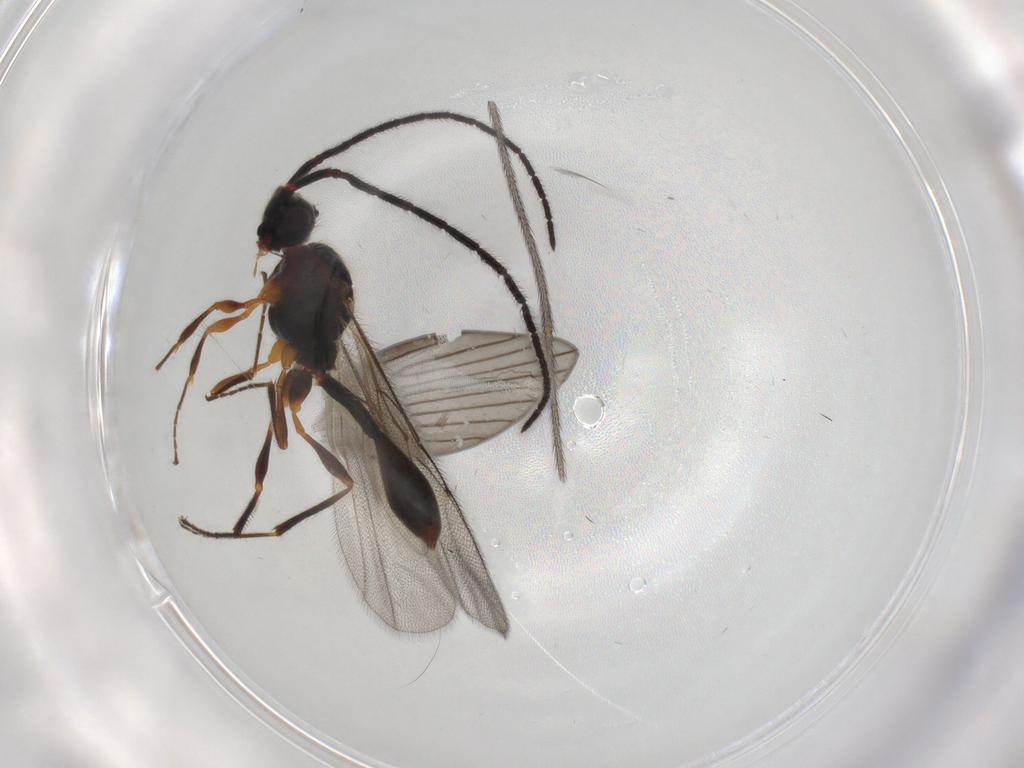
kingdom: Animalia
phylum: Arthropoda
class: Insecta
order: Hymenoptera
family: Diapriidae
